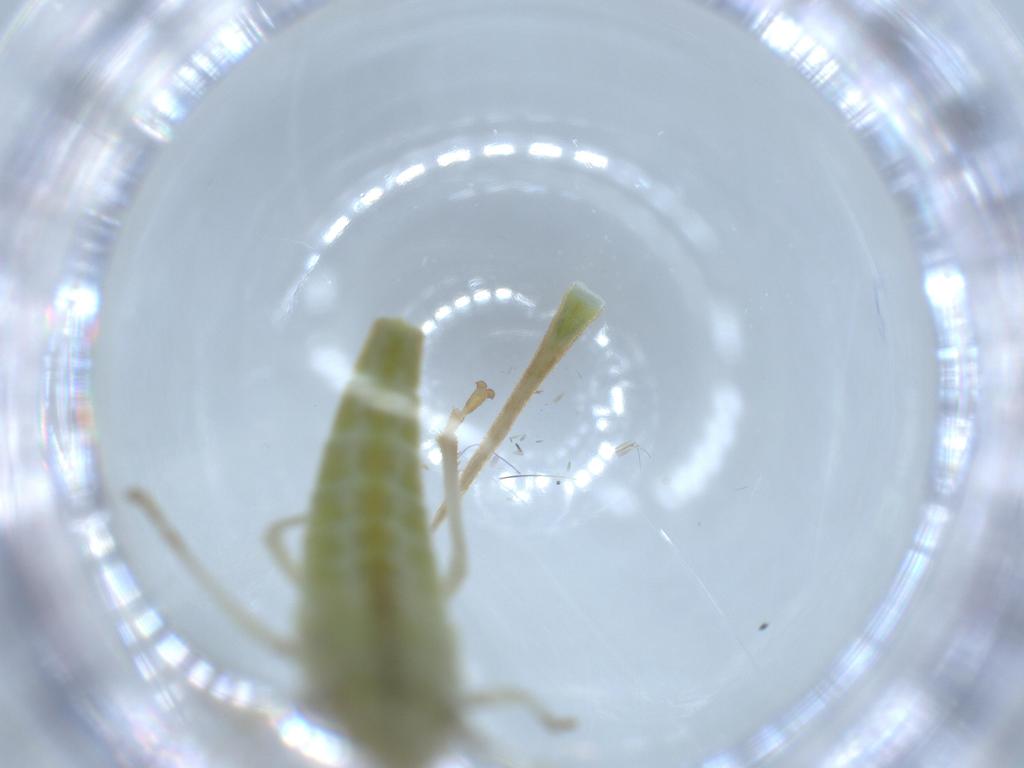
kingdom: Animalia
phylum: Arthropoda
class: Insecta
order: Hemiptera
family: Cicadellidae
